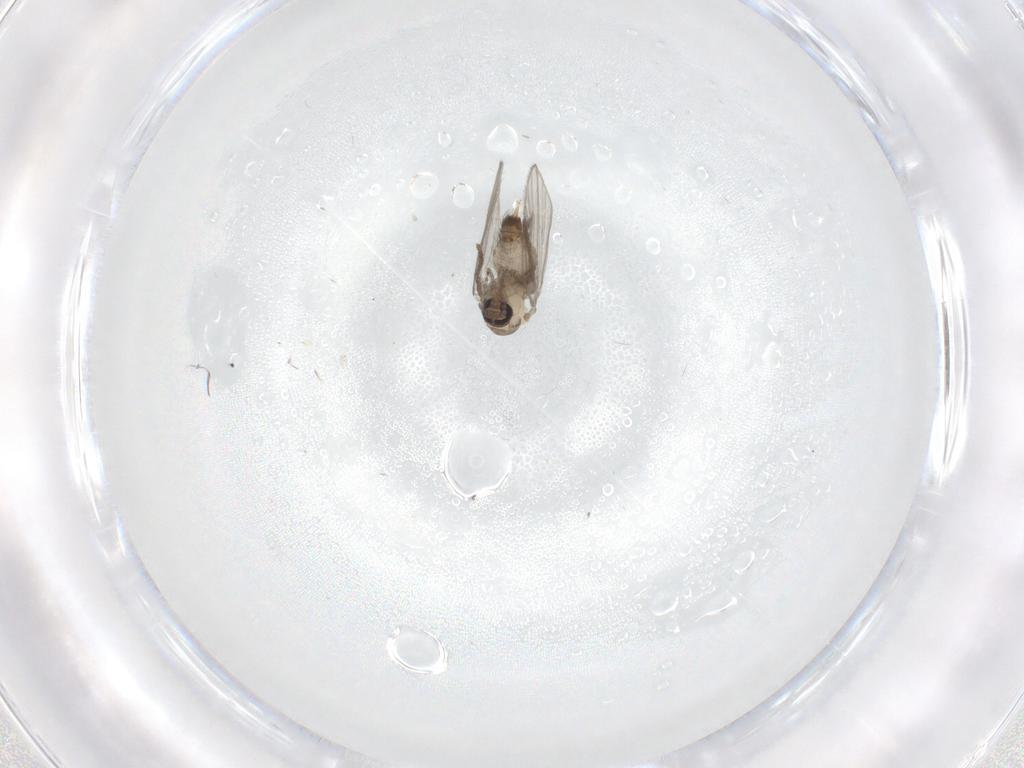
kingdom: Animalia
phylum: Arthropoda
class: Insecta
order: Diptera
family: Psychodidae
